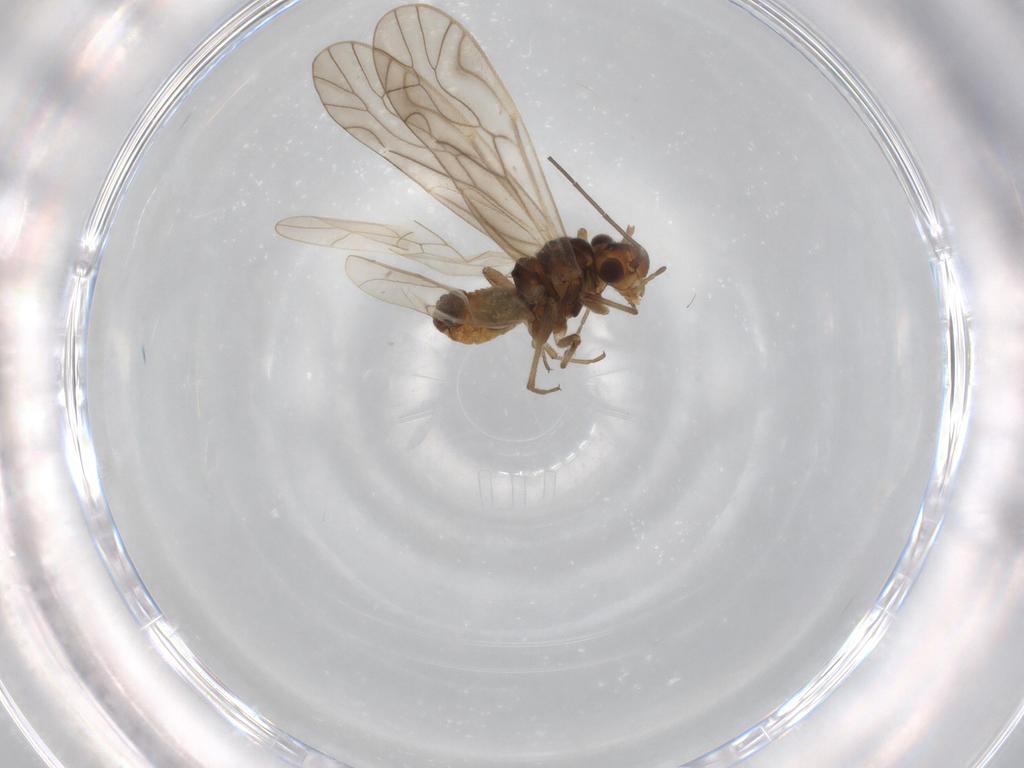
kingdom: Animalia
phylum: Arthropoda
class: Insecta
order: Psocodea
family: Philotarsidae
